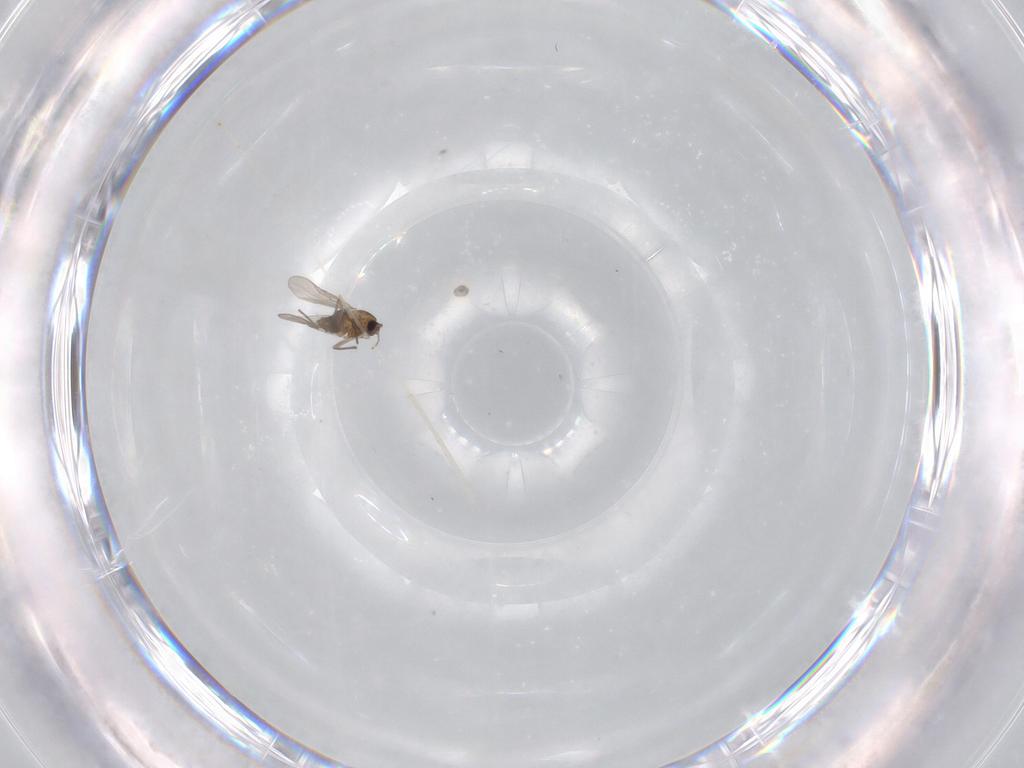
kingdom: Animalia
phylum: Arthropoda
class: Insecta
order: Diptera
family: Chironomidae
